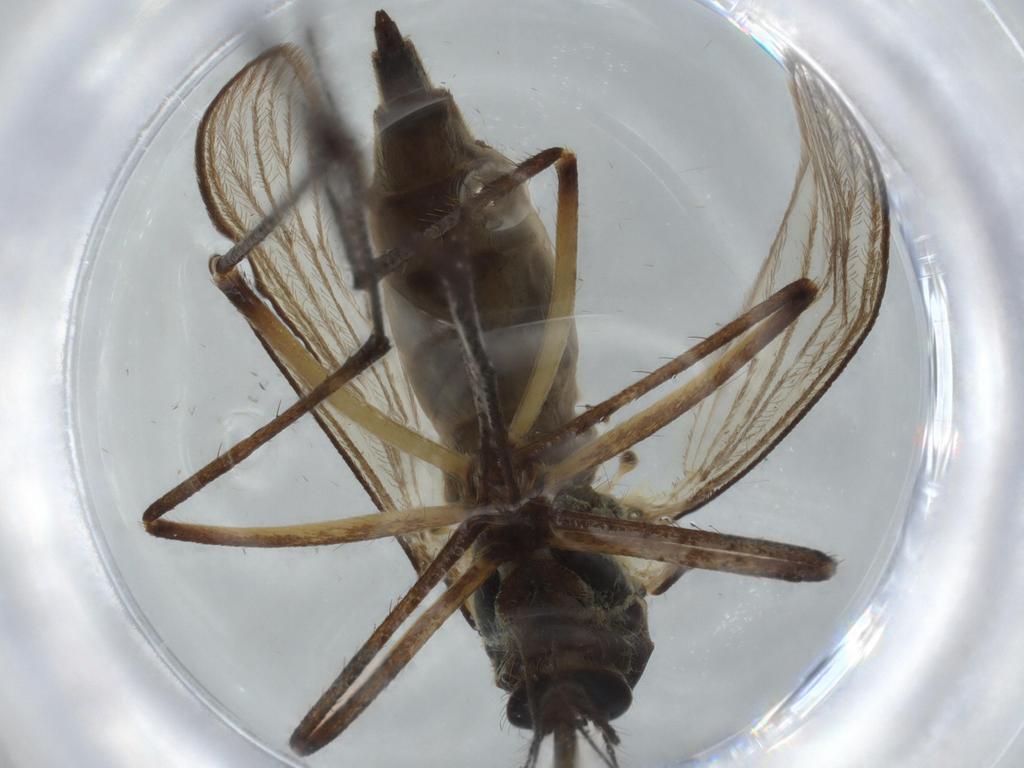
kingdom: Animalia
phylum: Arthropoda
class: Insecta
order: Diptera
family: Culicidae
